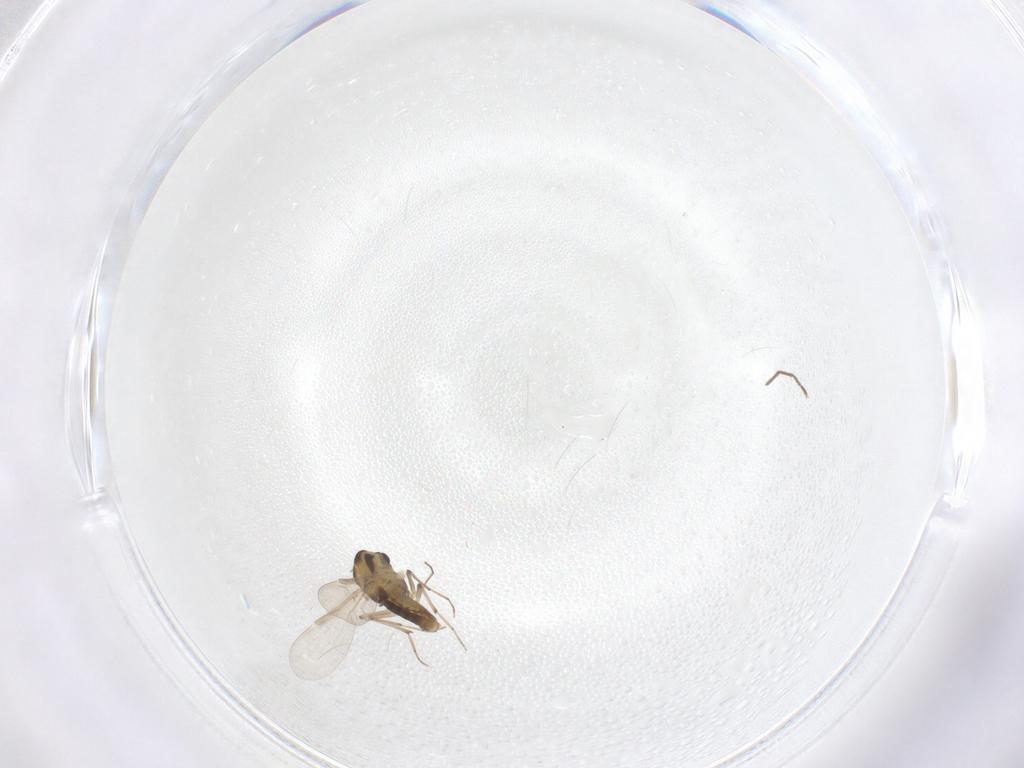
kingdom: Animalia
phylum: Arthropoda
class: Insecta
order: Diptera
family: Chironomidae
